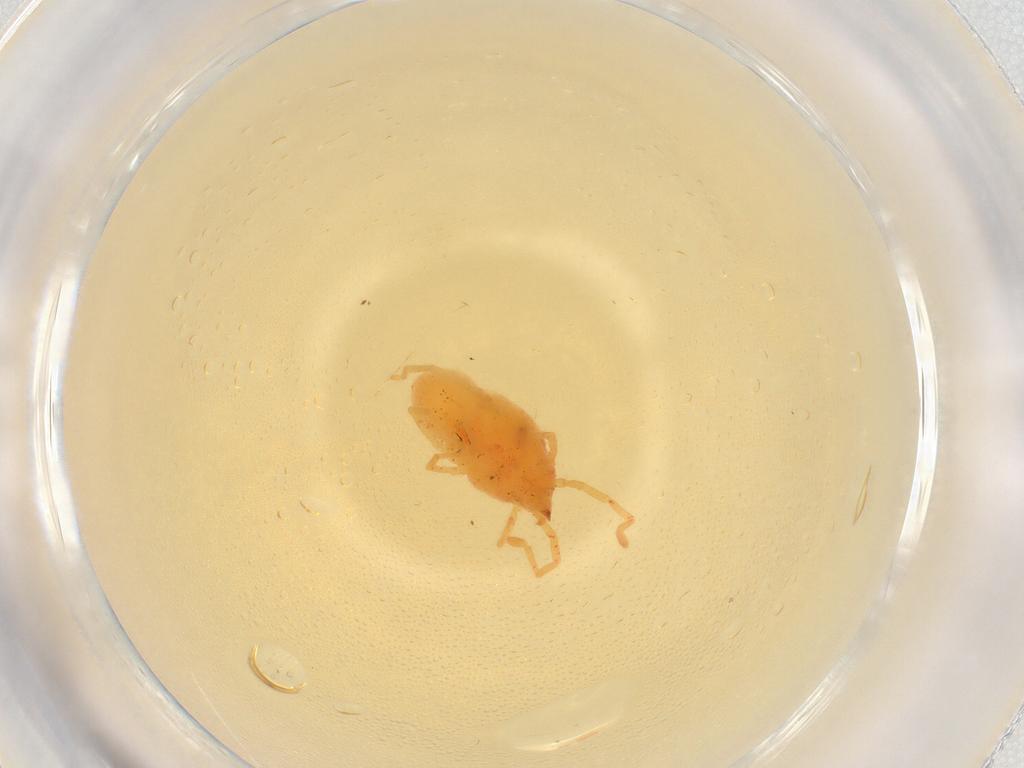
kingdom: Animalia
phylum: Arthropoda
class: Arachnida
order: Trombidiformes
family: Erythraeidae
